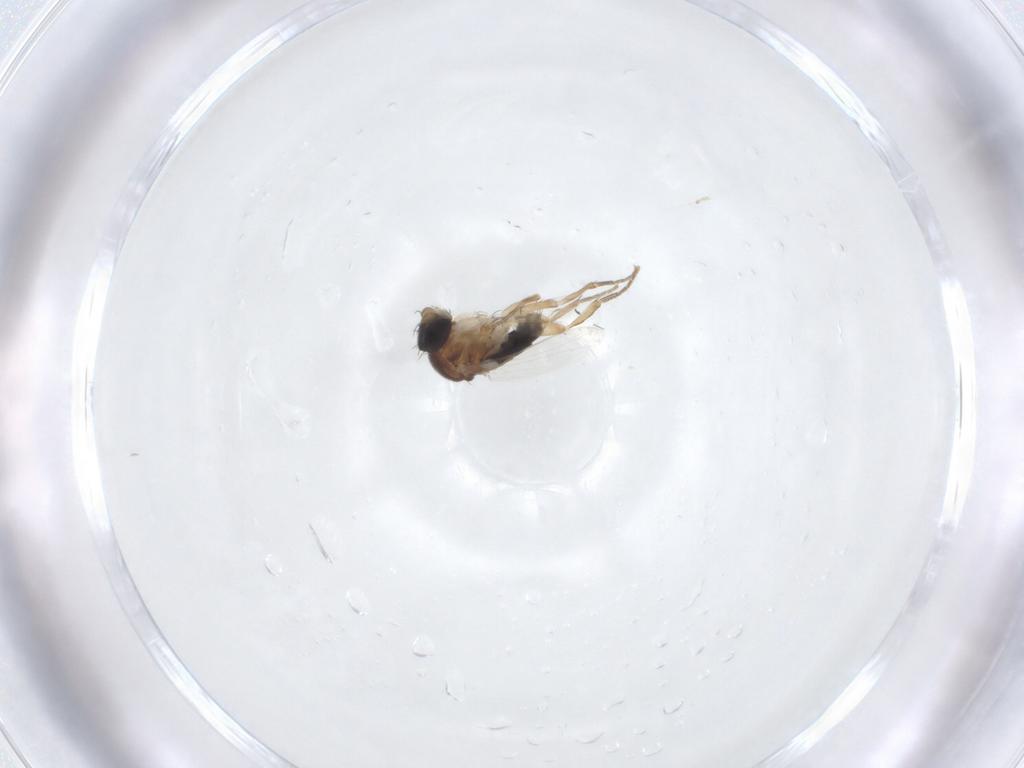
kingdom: Animalia
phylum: Arthropoda
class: Insecta
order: Diptera
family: Phoridae
